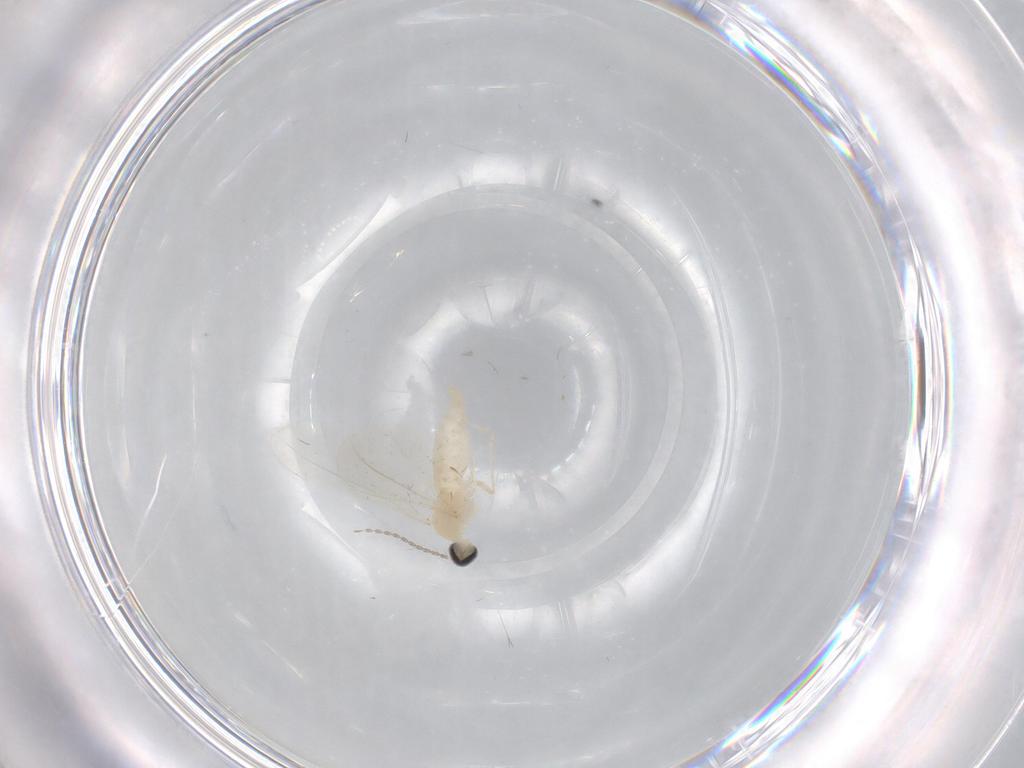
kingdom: Animalia
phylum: Arthropoda
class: Insecta
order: Diptera
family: Cecidomyiidae
